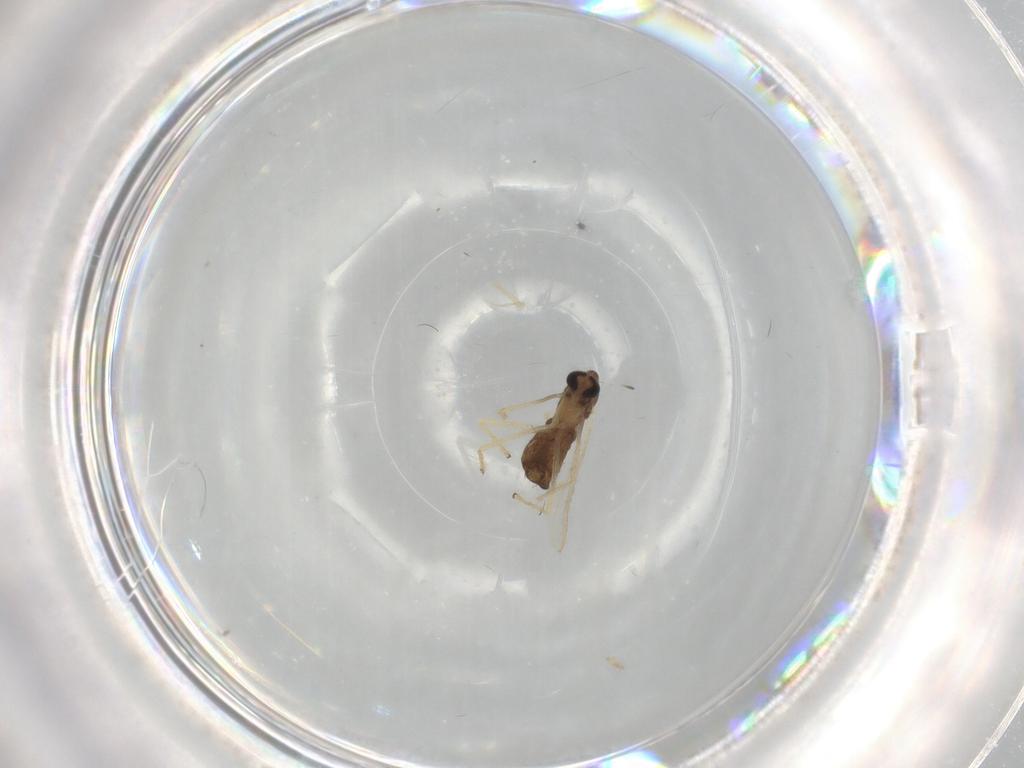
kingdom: Animalia
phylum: Arthropoda
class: Insecta
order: Diptera
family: Chironomidae
